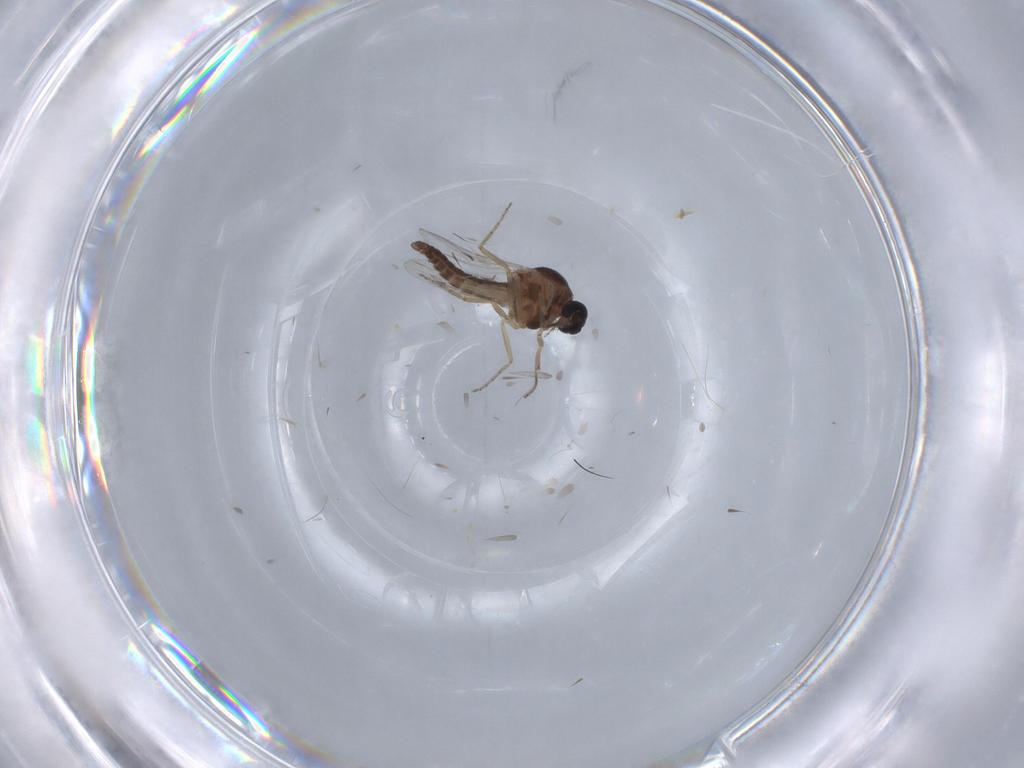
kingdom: Animalia
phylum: Arthropoda
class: Insecta
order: Diptera
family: Ceratopogonidae
